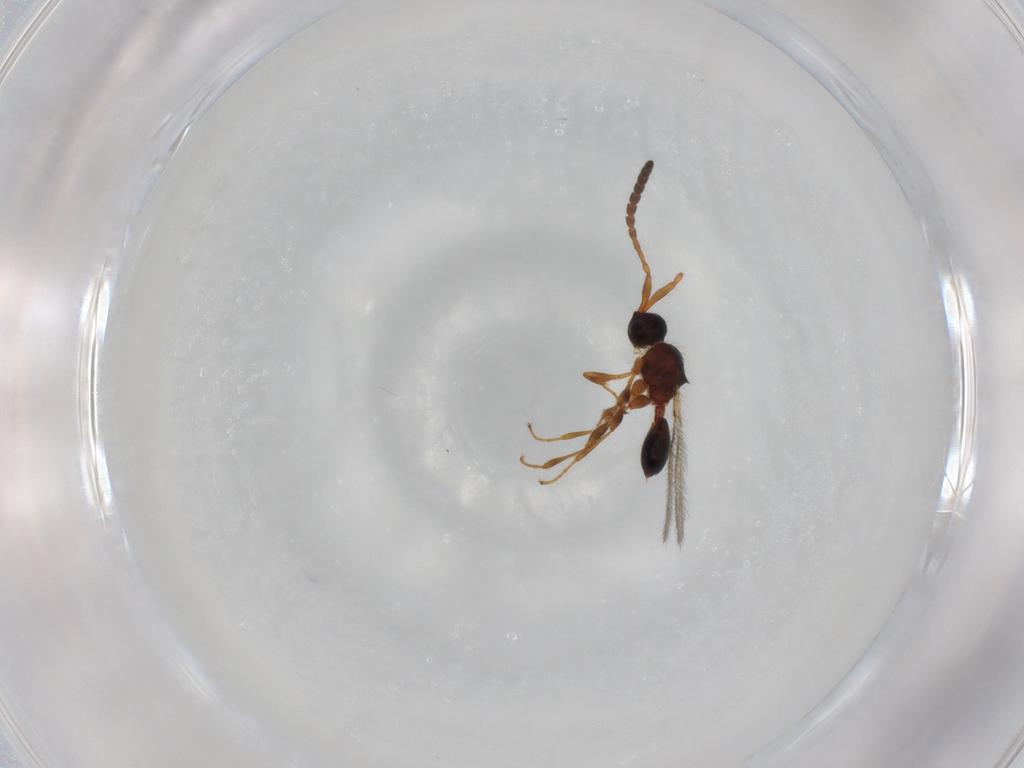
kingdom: Animalia
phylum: Arthropoda
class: Insecta
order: Hymenoptera
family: Diapriidae
